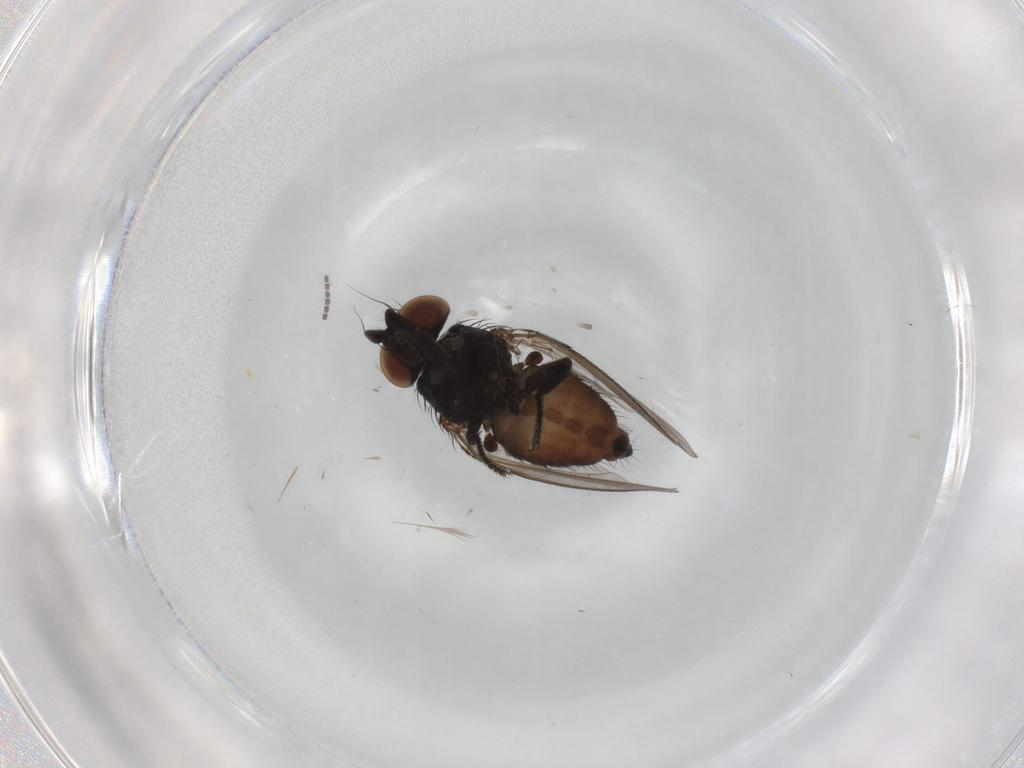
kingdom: Animalia
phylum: Arthropoda
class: Insecta
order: Diptera
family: Milichiidae
